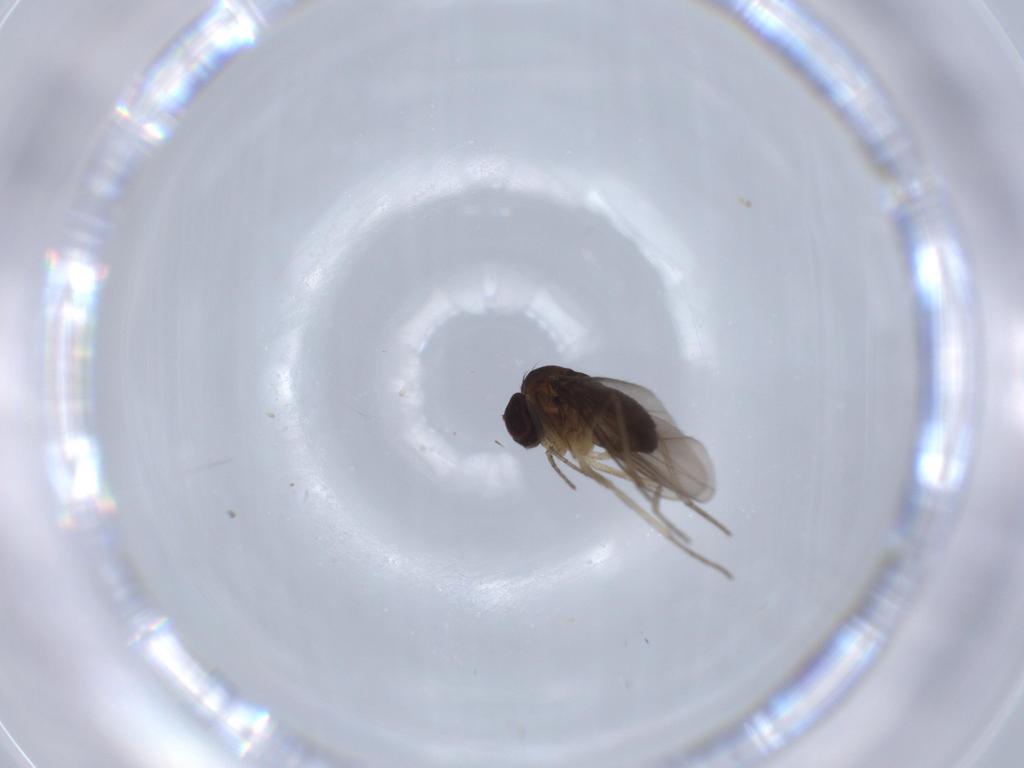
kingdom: Animalia
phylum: Arthropoda
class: Insecta
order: Diptera
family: Dolichopodidae
